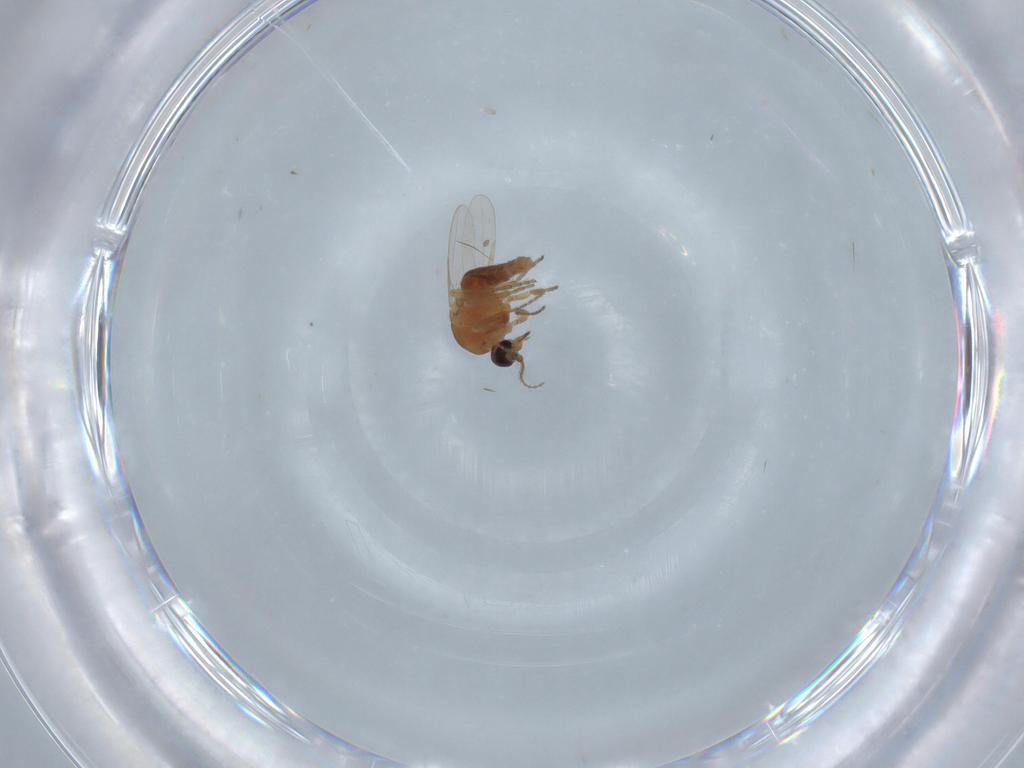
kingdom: Animalia
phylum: Arthropoda
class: Insecta
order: Diptera
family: Ceratopogonidae
